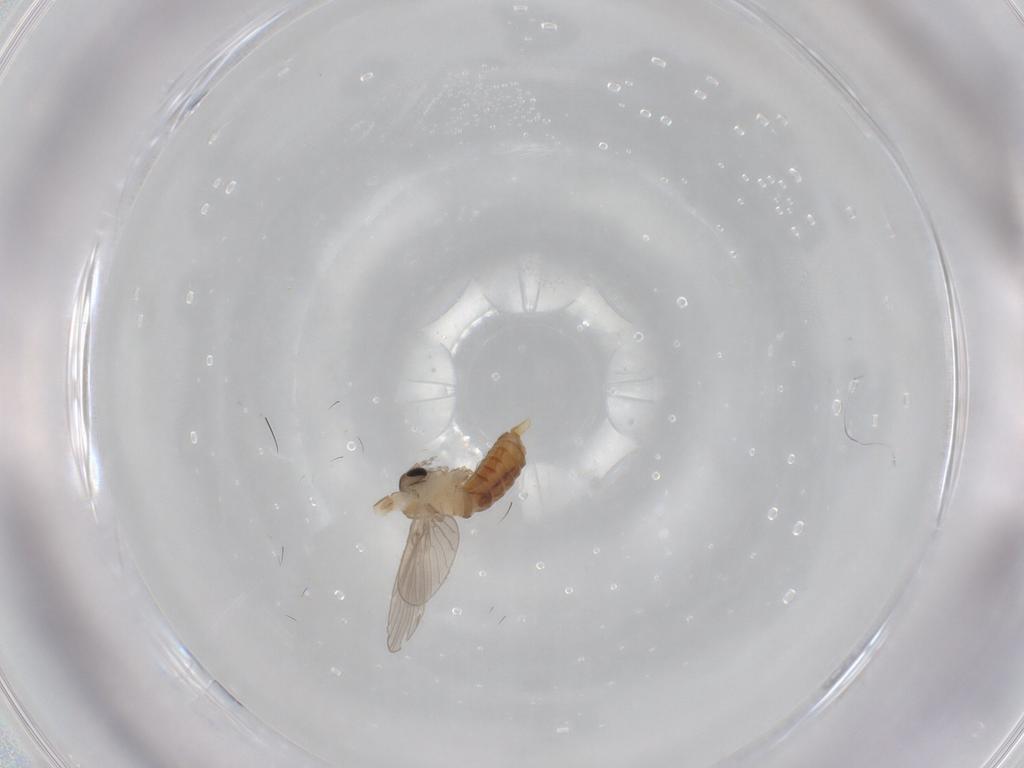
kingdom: Animalia
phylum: Arthropoda
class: Insecta
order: Diptera
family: Psychodidae
